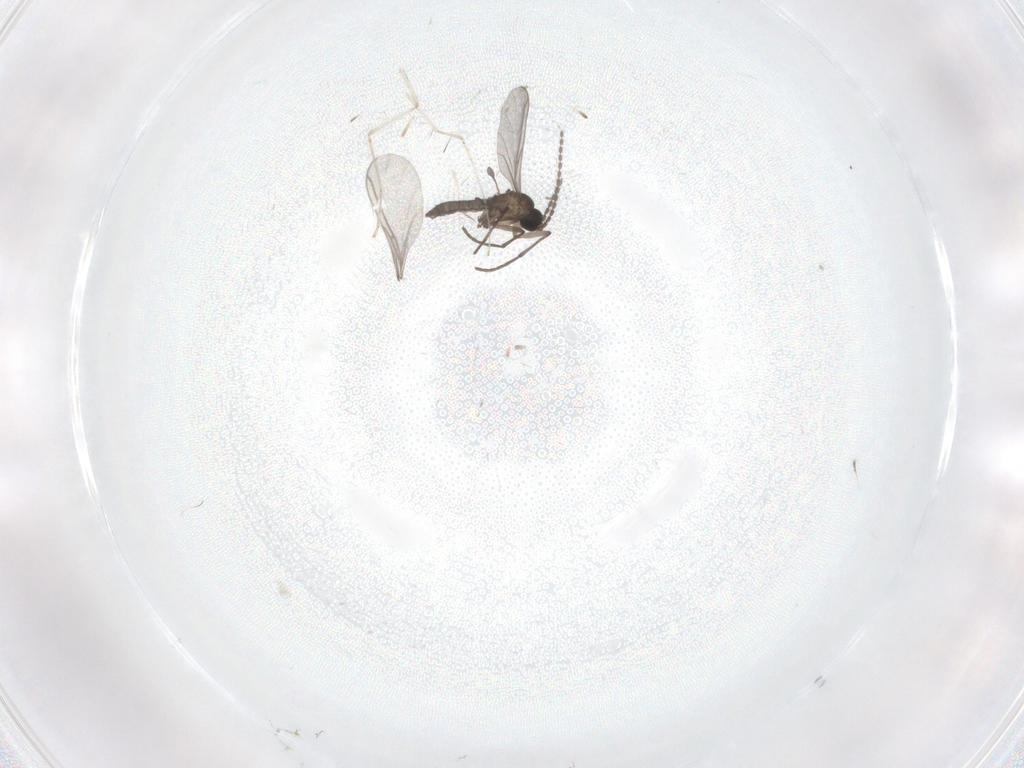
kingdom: Animalia
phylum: Arthropoda
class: Insecta
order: Diptera
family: Sciaridae
